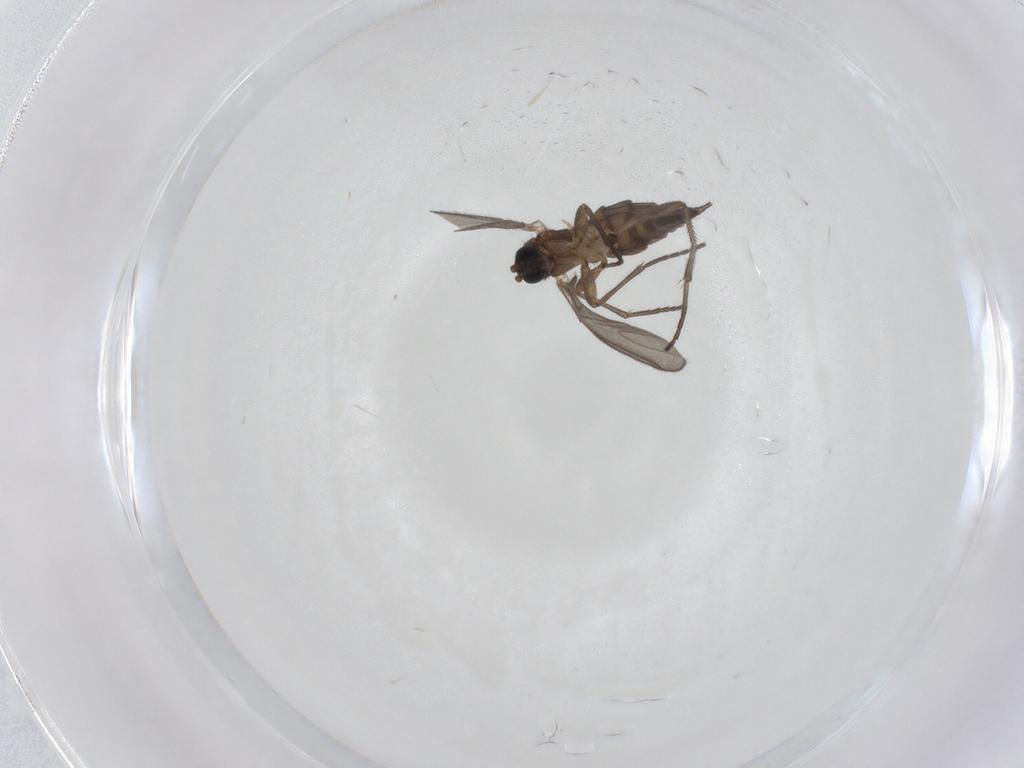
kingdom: Animalia
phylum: Arthropoda
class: Insecta
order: Diptera
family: Sciaridae
